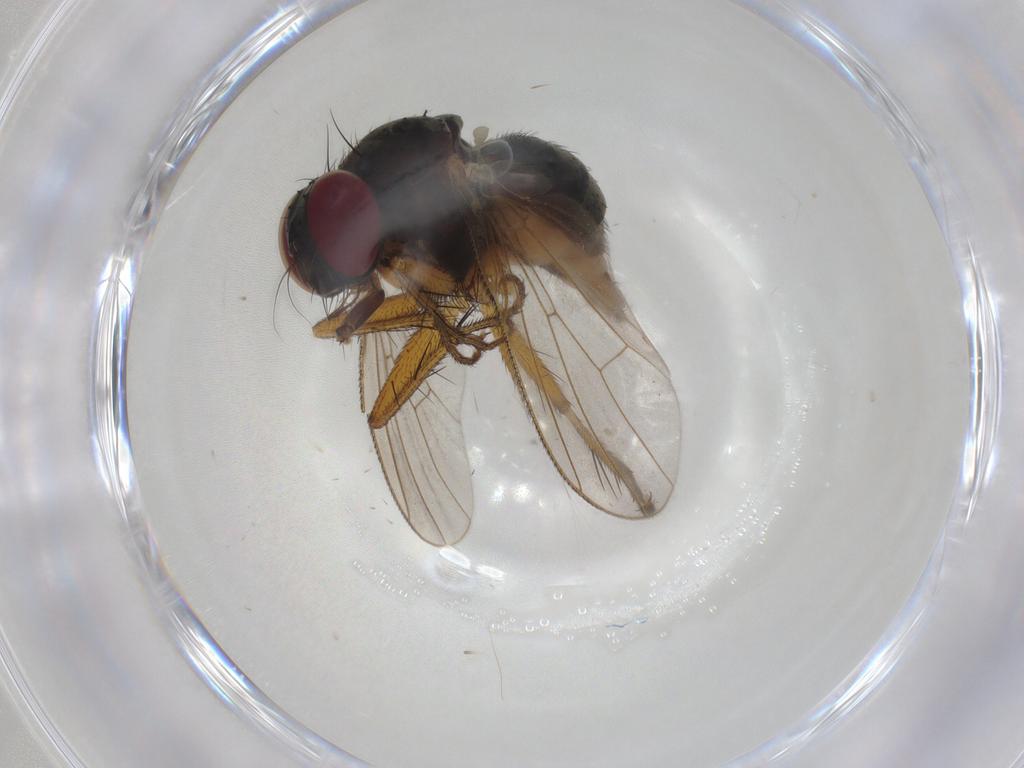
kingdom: Animalia
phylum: Arthropoda
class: Insecta
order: Diptera
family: Muscidae
